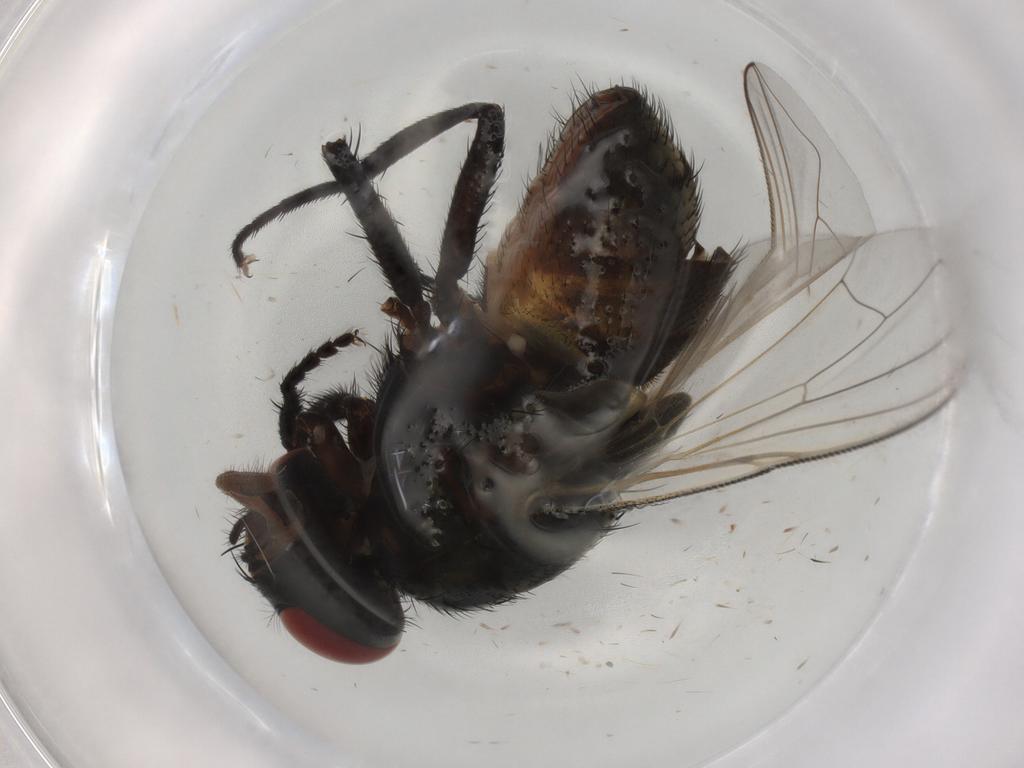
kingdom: Animalia
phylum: Arthropoda
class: Insecta
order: Diptera
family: Muscidae
